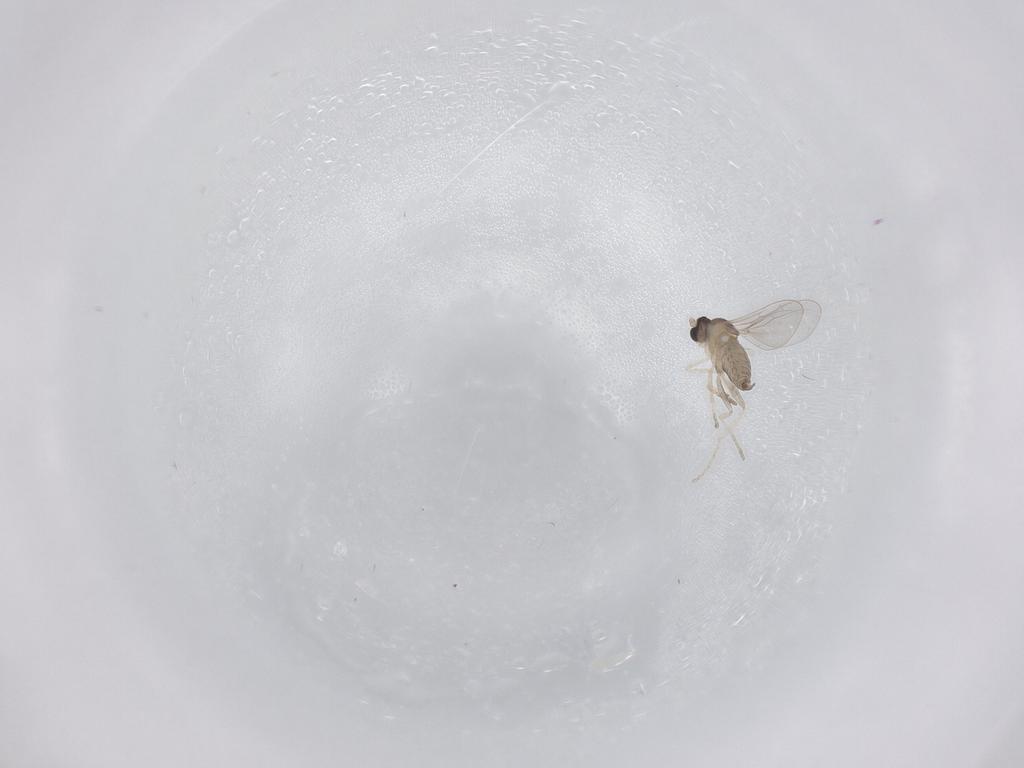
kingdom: Animalia
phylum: Arthropoda
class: Insecta
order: Diptera
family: Cecidomyiidae
